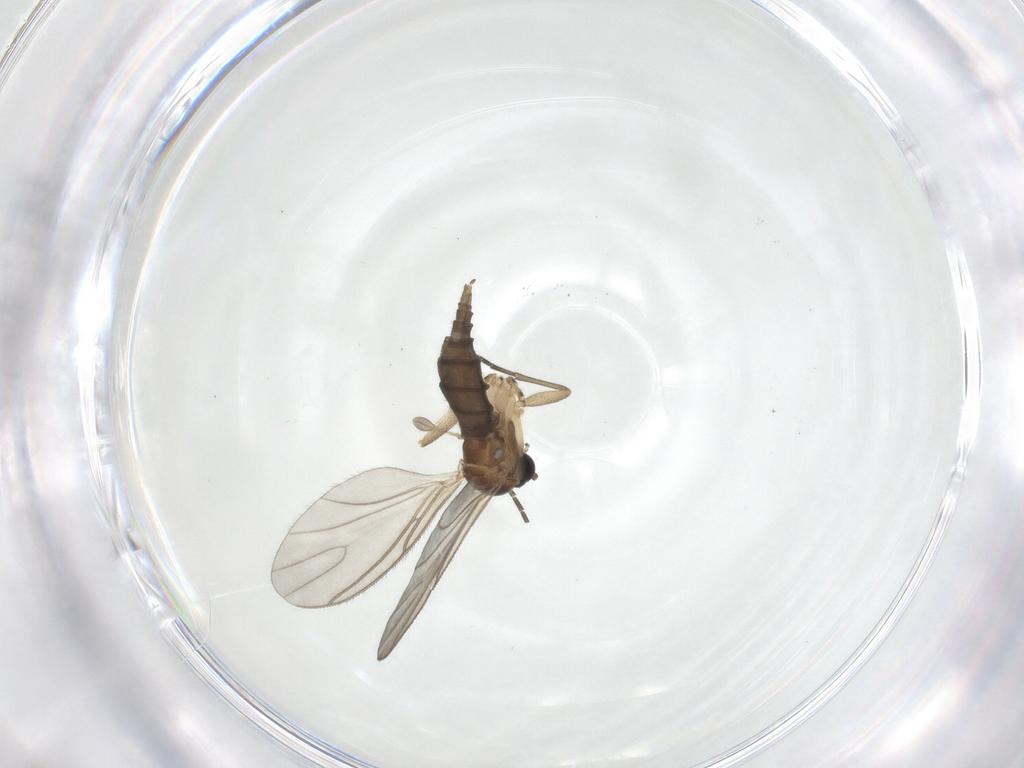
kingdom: Animalia
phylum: Arthropoda
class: Insecta
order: Diptera
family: Sciaridae
